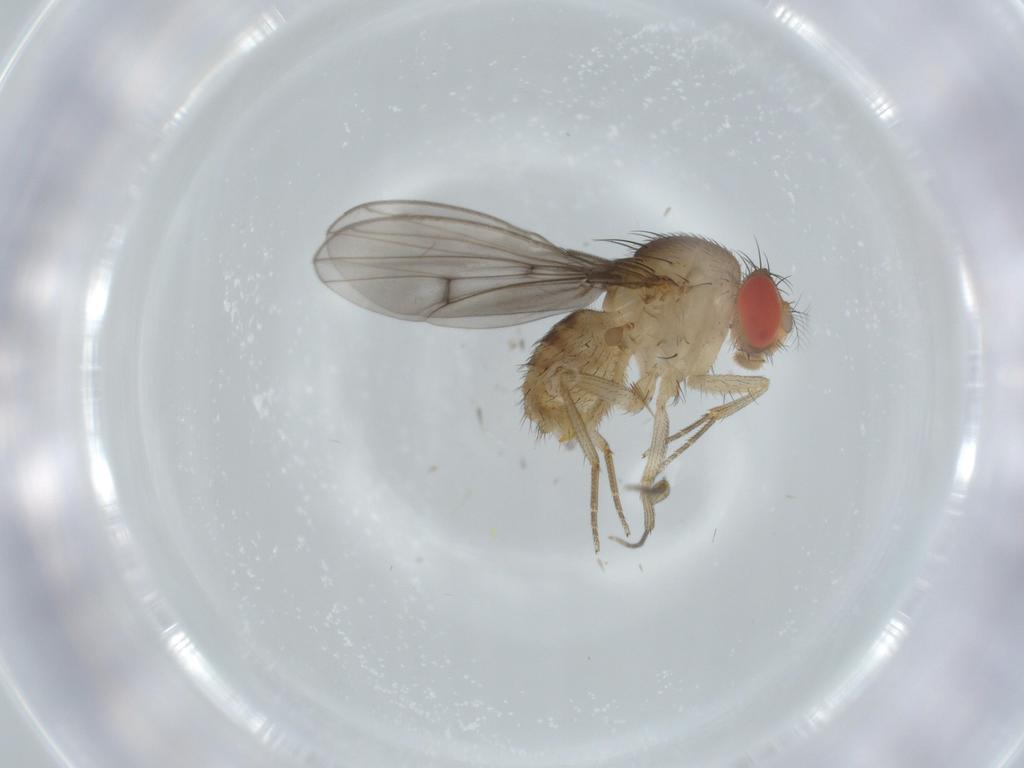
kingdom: Animalia
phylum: Arthropoda
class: Insecta
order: Diptera
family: Drosophilidae
